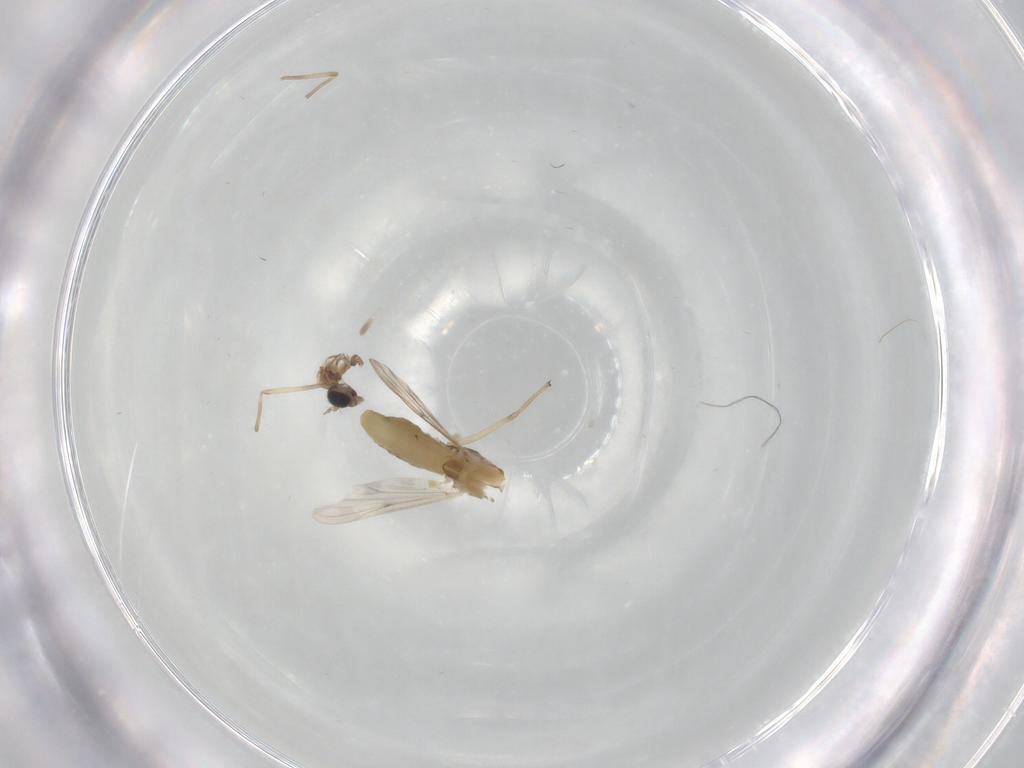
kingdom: Animalia
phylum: Arthropoda
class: Insecta
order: Diptera
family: Chironomidae
